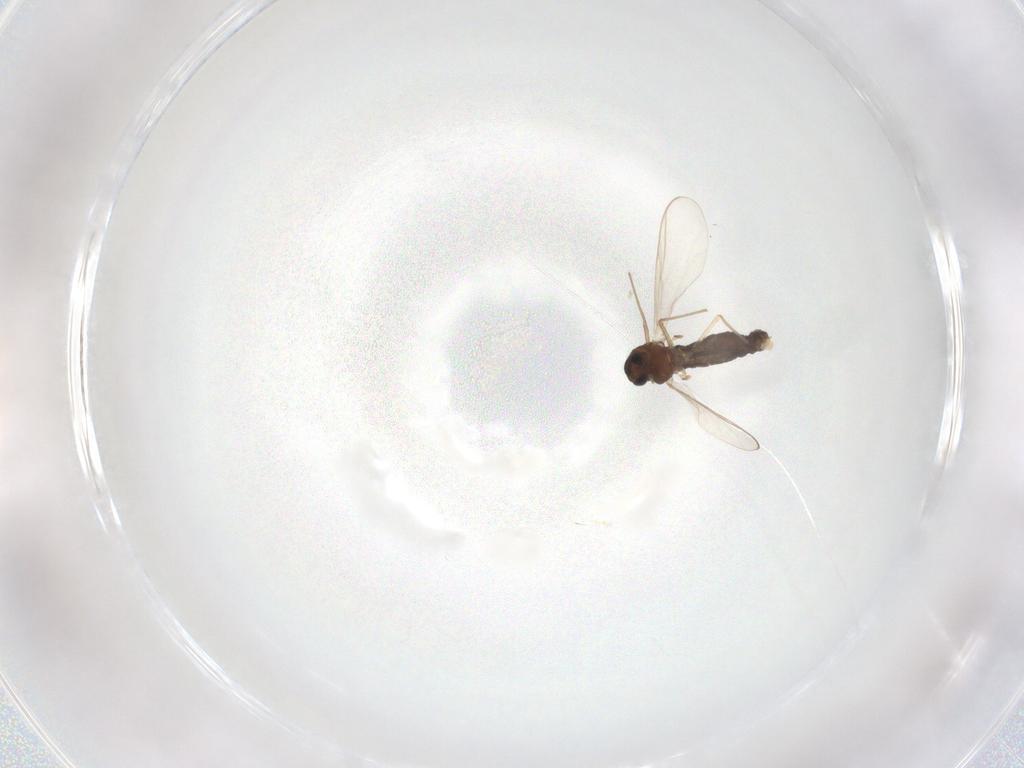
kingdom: Animalia
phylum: Arthropoda
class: Insecta
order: Diptera
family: Chironomidae
